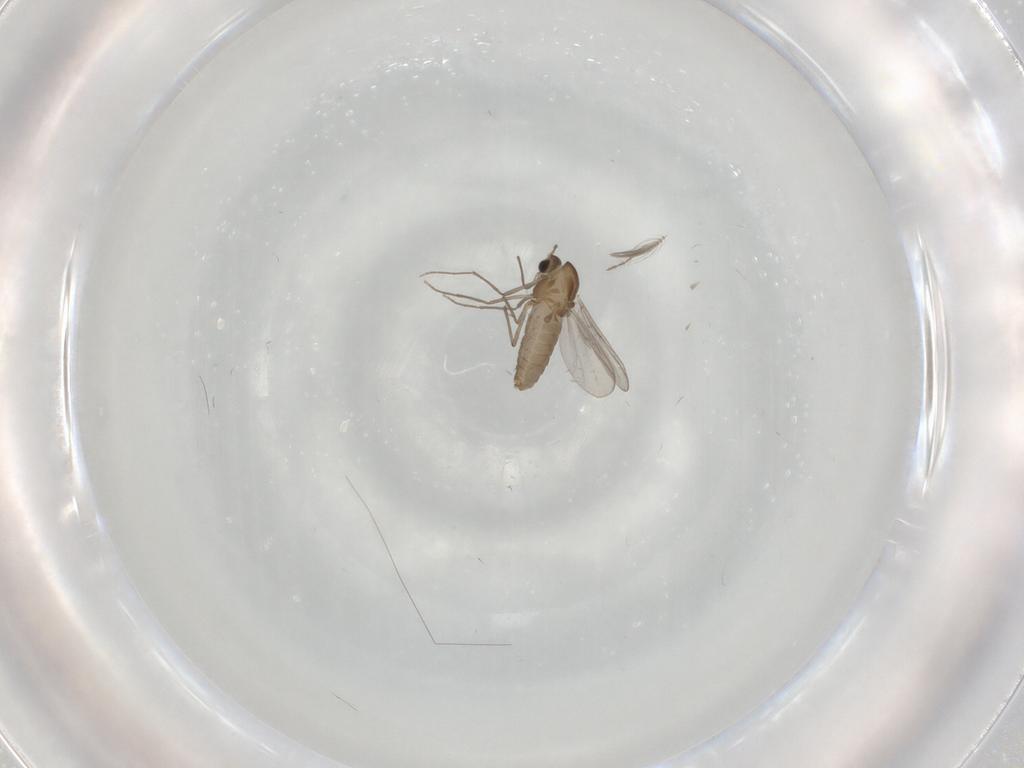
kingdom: Animalia
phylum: Arthropoda
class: Insecta
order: Diptera
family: Chironomidae
